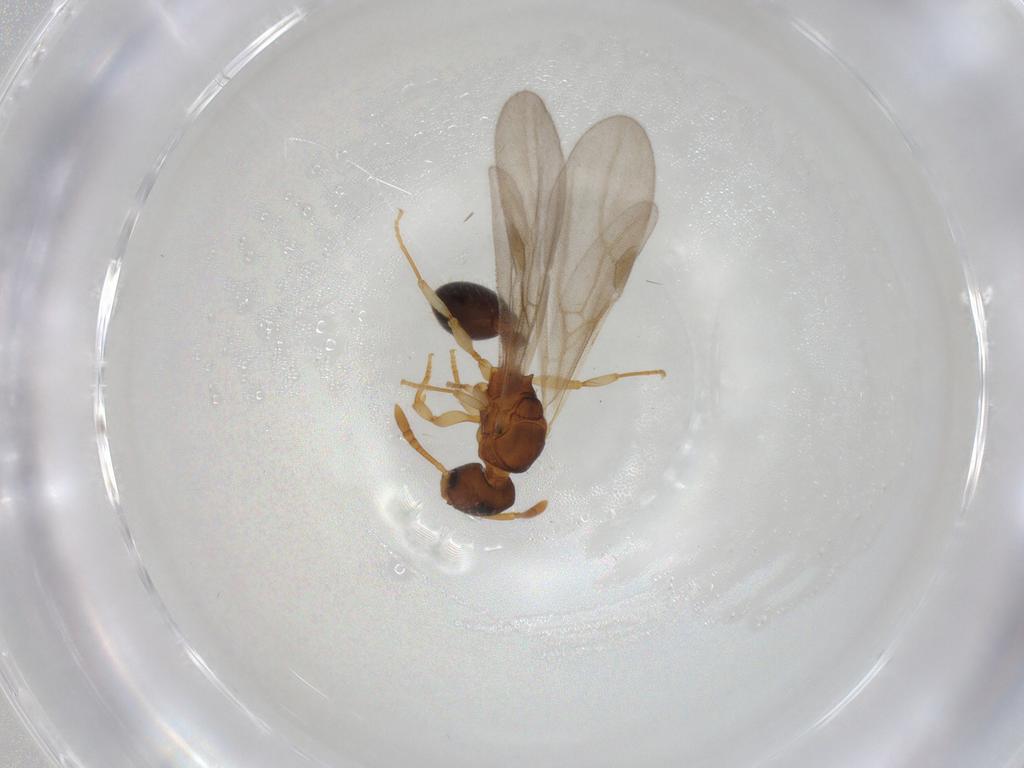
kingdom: Animalia
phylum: Arthropoda
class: Insecta
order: Hymenoptera
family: Formicidae
